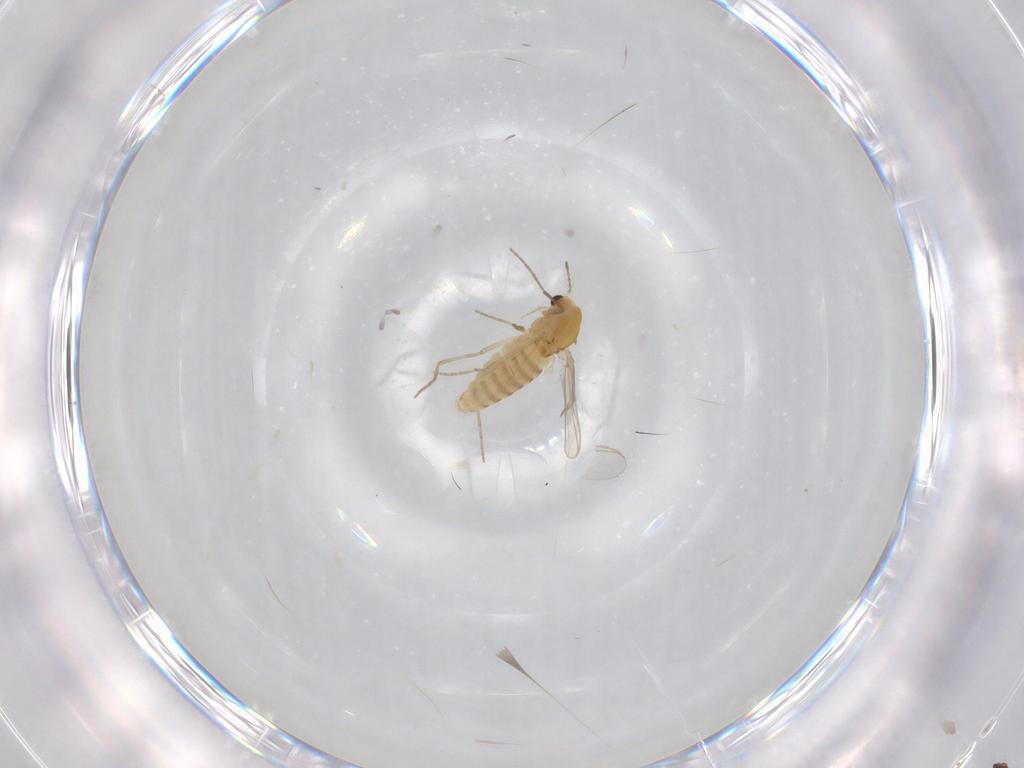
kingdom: Animalia
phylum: Arthropoda
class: Insecta
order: Diptera
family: Chironomidae
